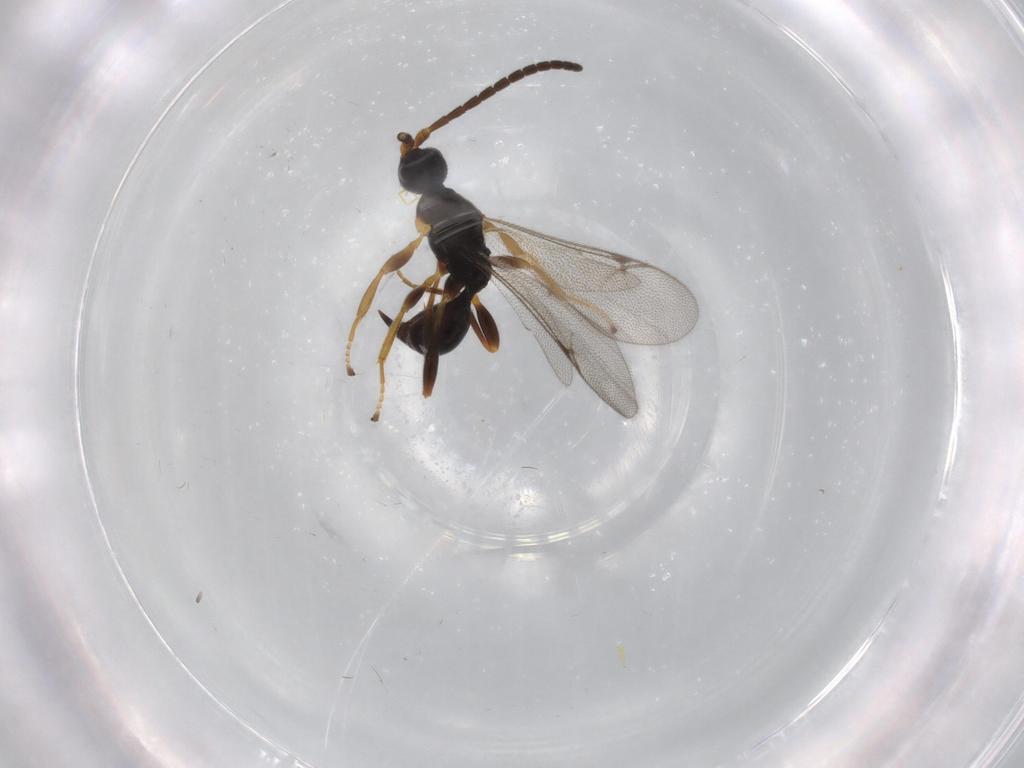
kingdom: Animalia
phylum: Arthropoda
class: Insecta
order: Hymenoptera
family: Proctotrupidae
